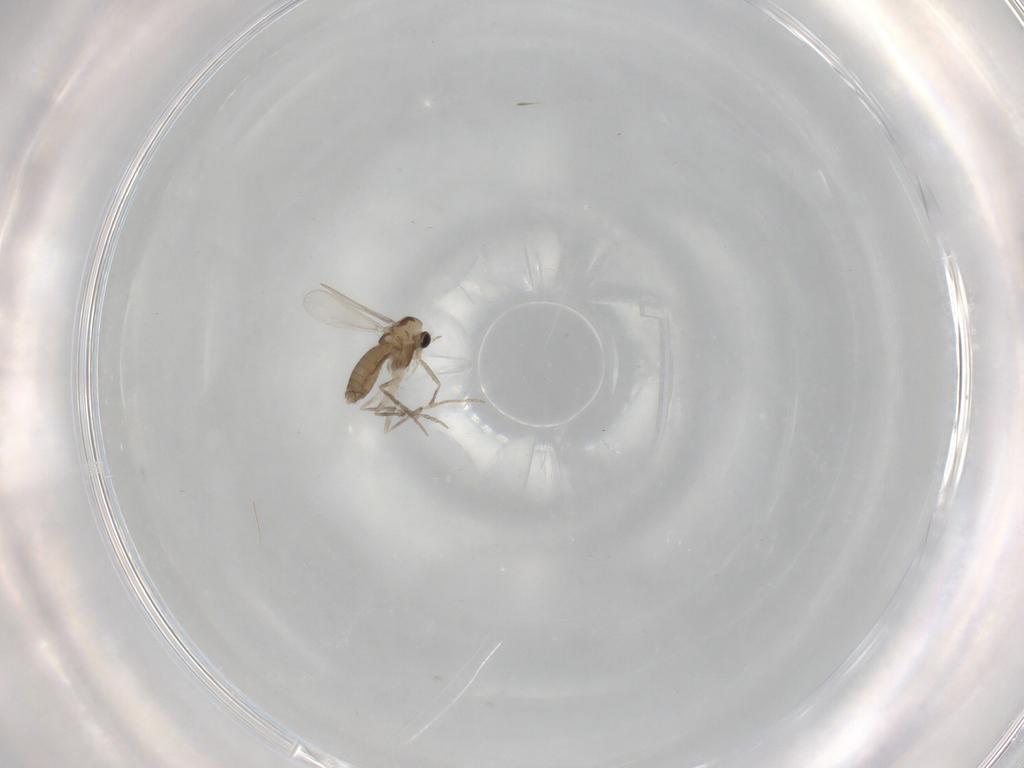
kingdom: Animalia
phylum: Arthropoda
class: Insecta
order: Diptera
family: Chironomidae
